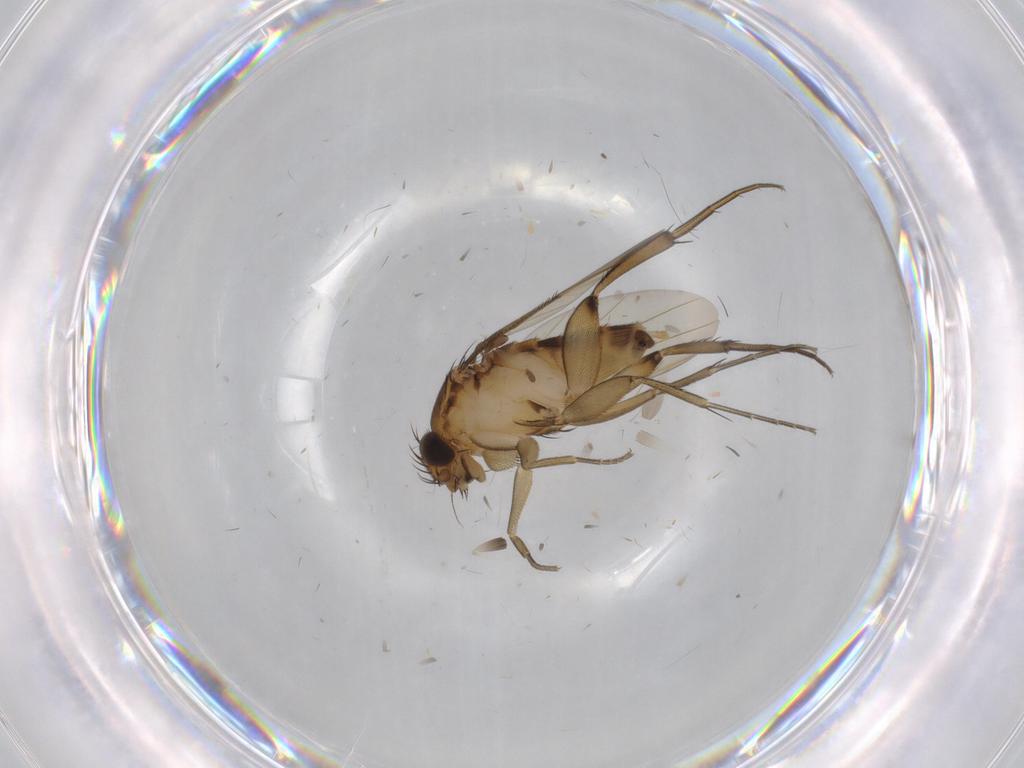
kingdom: Animalia
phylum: Arthropoda
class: Insecta
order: Diptera
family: Phoridae
